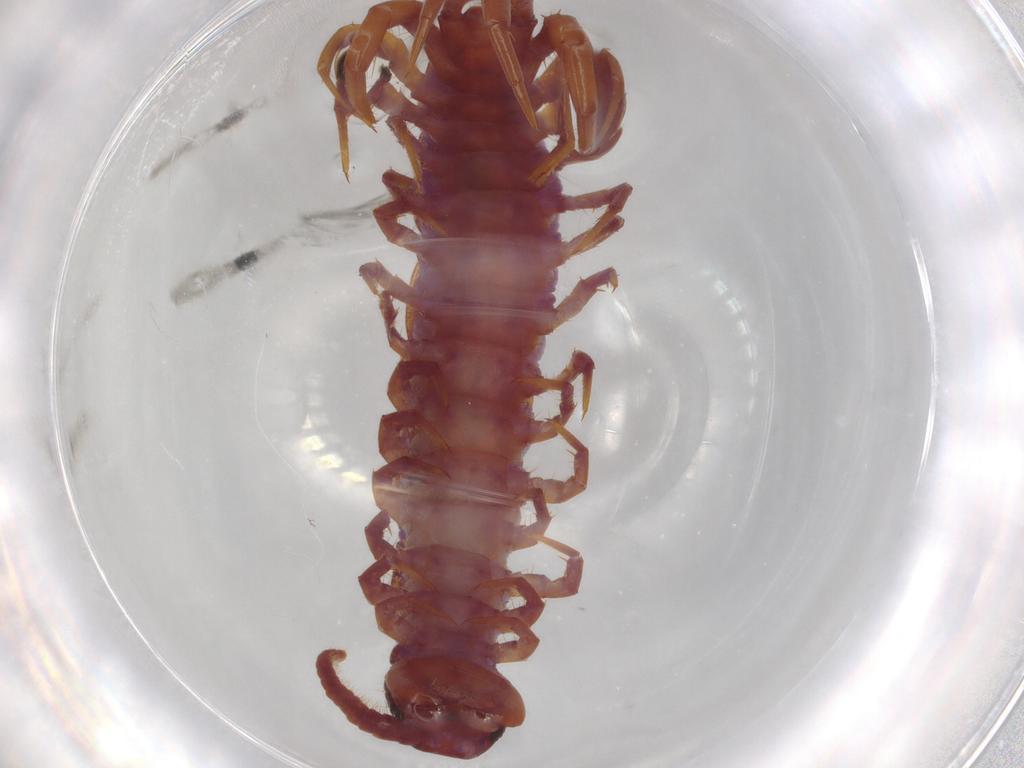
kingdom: Animalia
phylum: Arthropoda
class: Chilopoda
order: Lithobiomorpha
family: Lithobiidae
